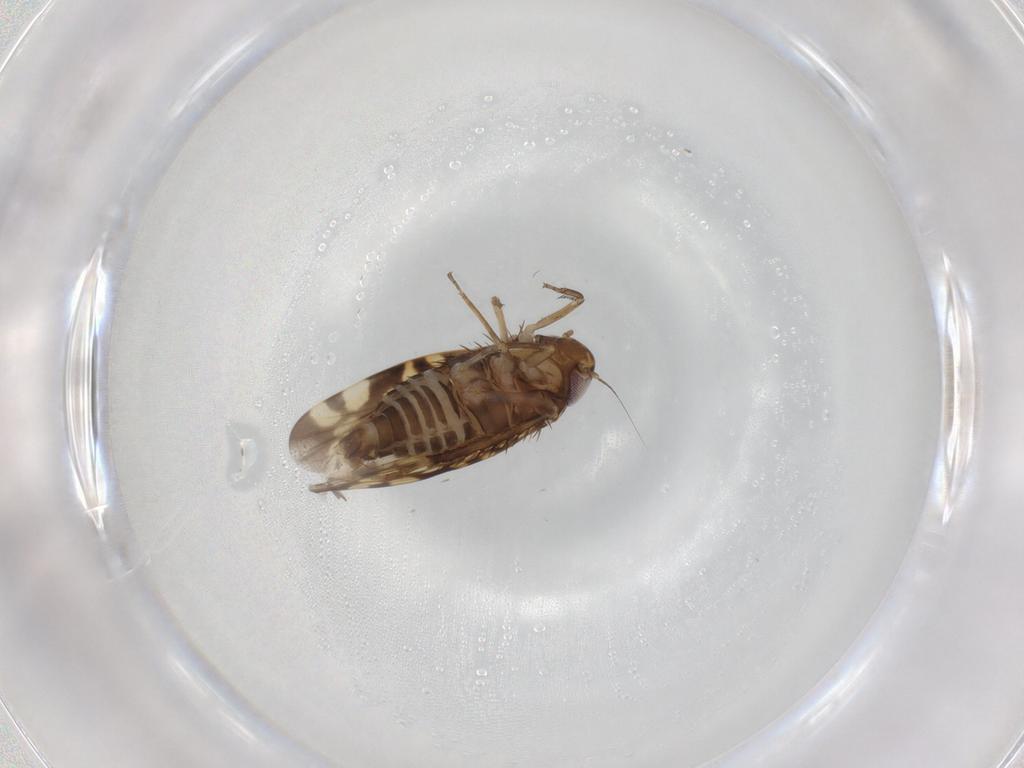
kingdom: Animalia
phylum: Arthropoda
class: Insecta
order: Hemiptera
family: Cicadellidae
